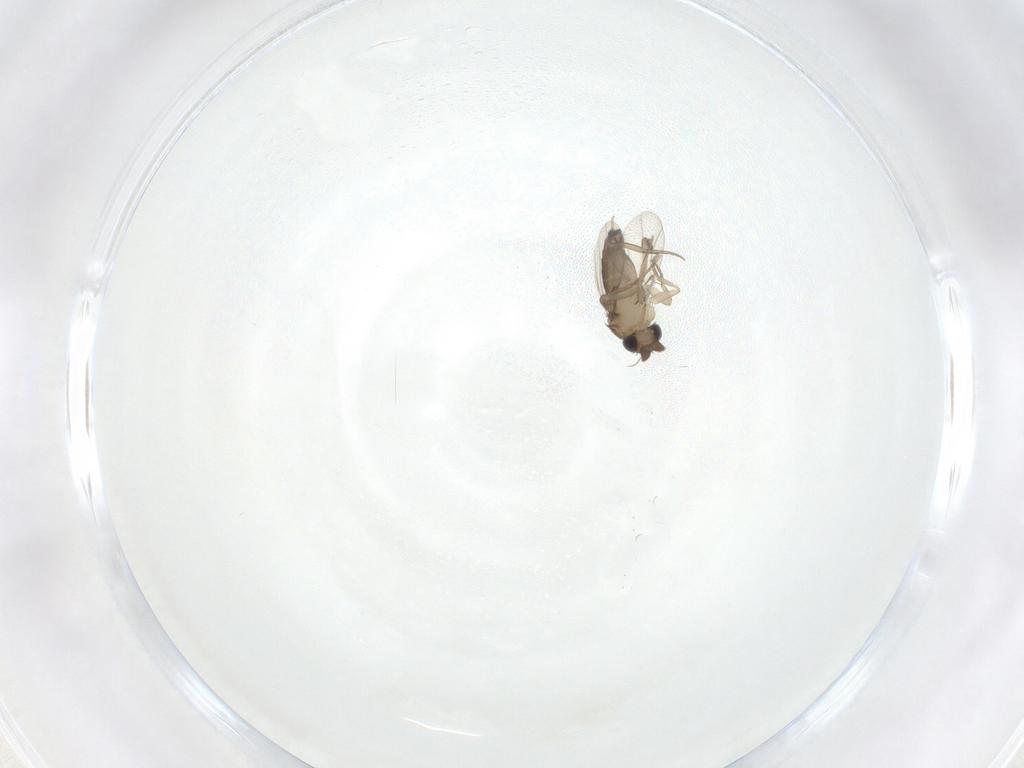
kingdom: Animalia
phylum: Arthropoda
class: Insecta
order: Diptera
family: Phoridae
